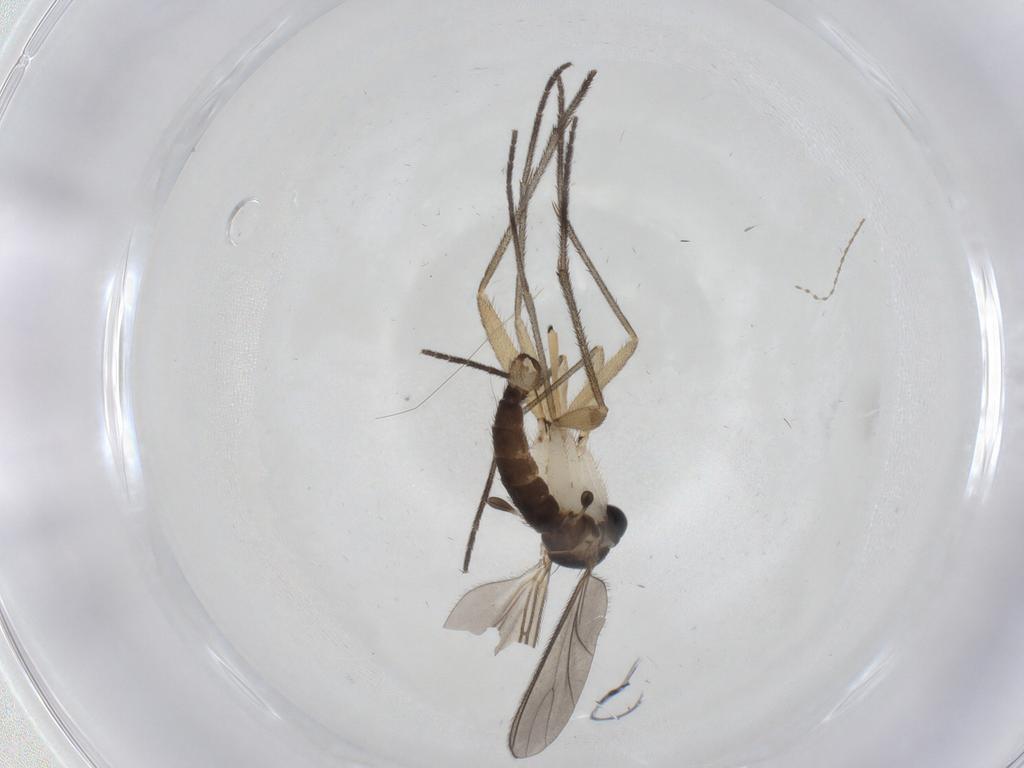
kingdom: Animalia
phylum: Arthropoda
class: Insecta
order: Diptera
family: Sciaridae
